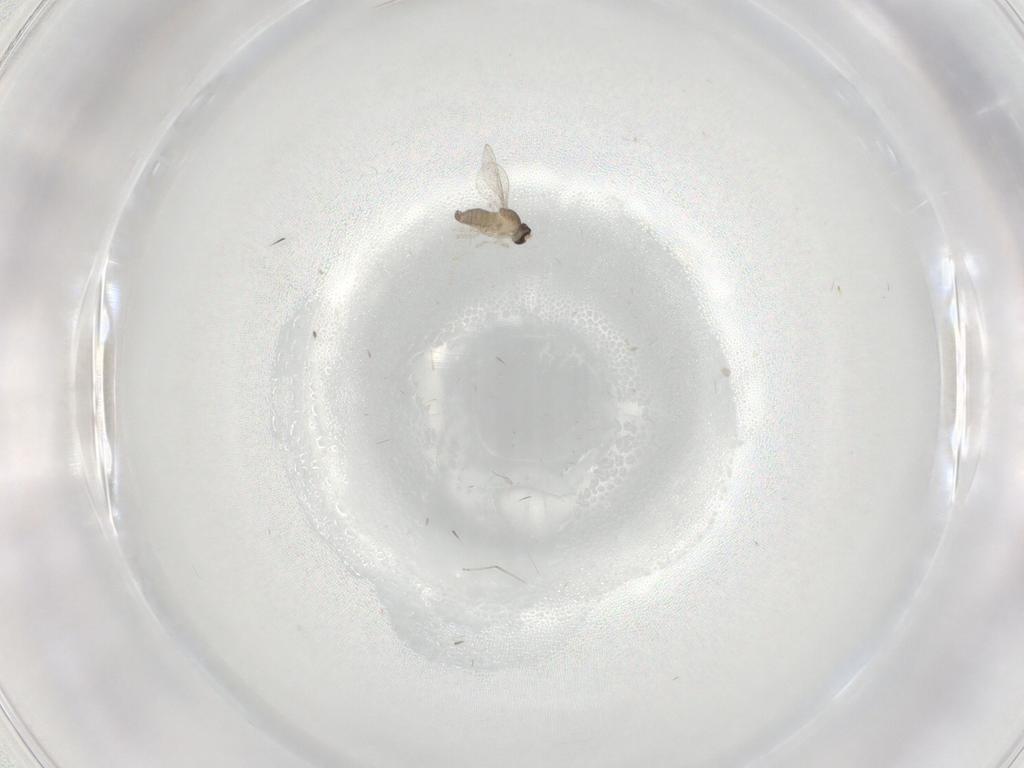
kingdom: Animalia
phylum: Arthropoda
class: Insecta
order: Diptera
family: Cecidomyiidae
